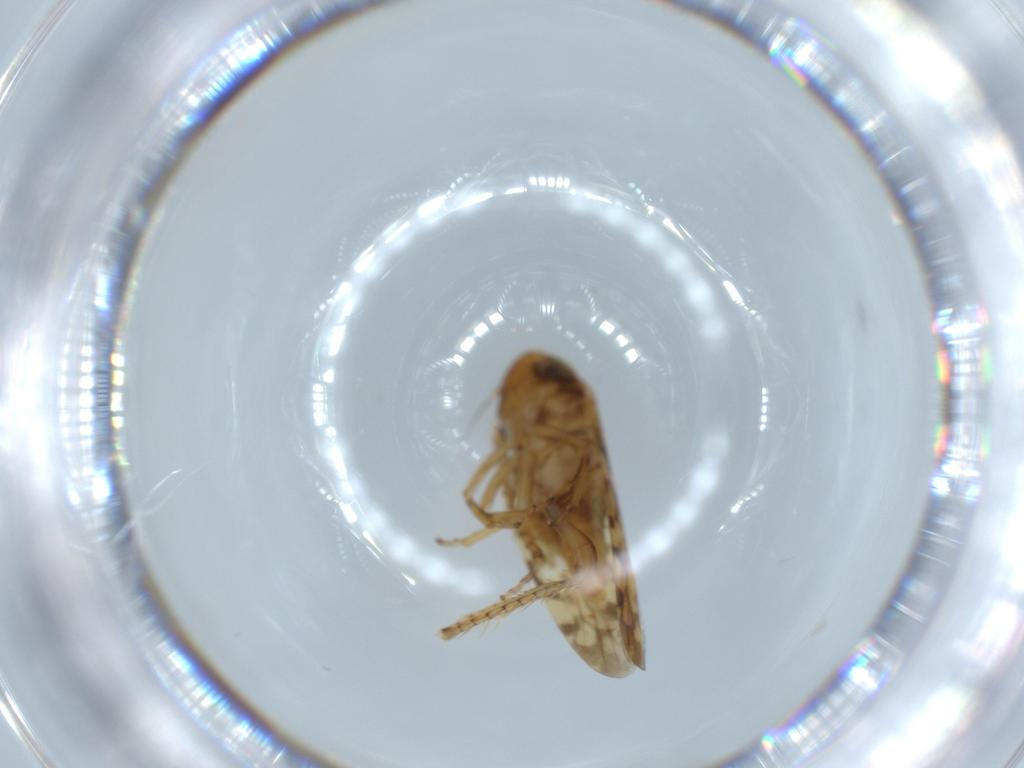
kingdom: Animalia
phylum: Arthropoda
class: Insecta
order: Hemiptera
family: Cicadellidae
